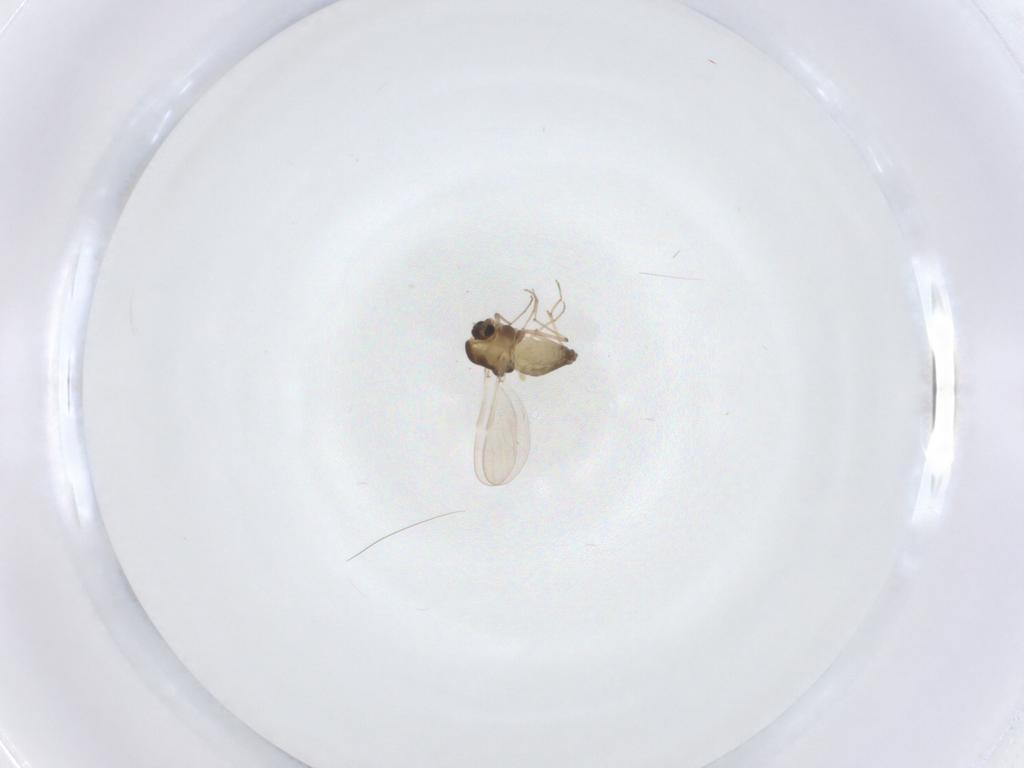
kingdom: Animalia
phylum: Arthropoda
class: Insecta
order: Diptera
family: Chironomidae
